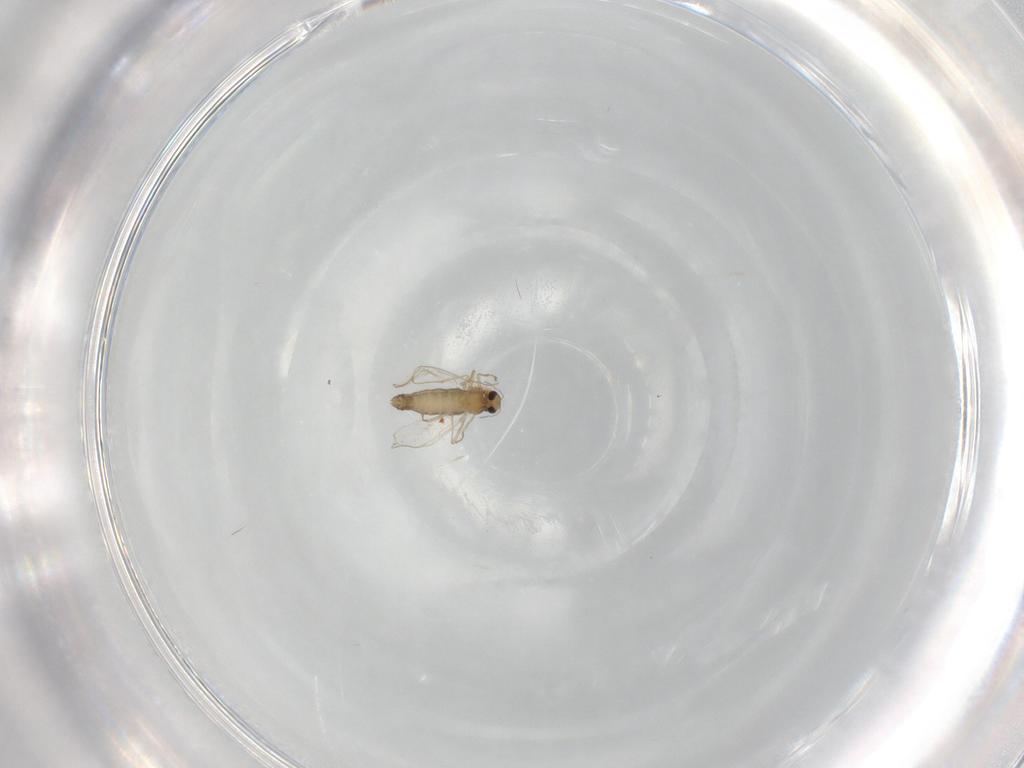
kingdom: Animalia
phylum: Arthropoda
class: Insecta
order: Diptera
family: Chironomidae
